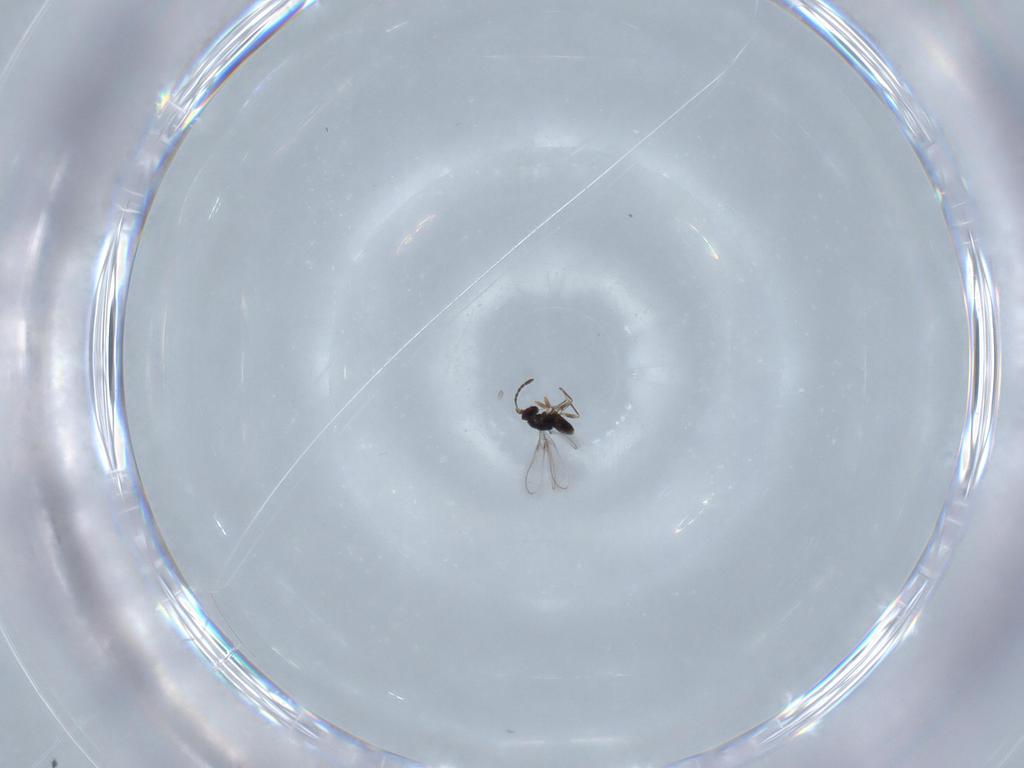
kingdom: Animalia
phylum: Arthropoda
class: Insecta
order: Hymenoptera
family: Mymaridae
